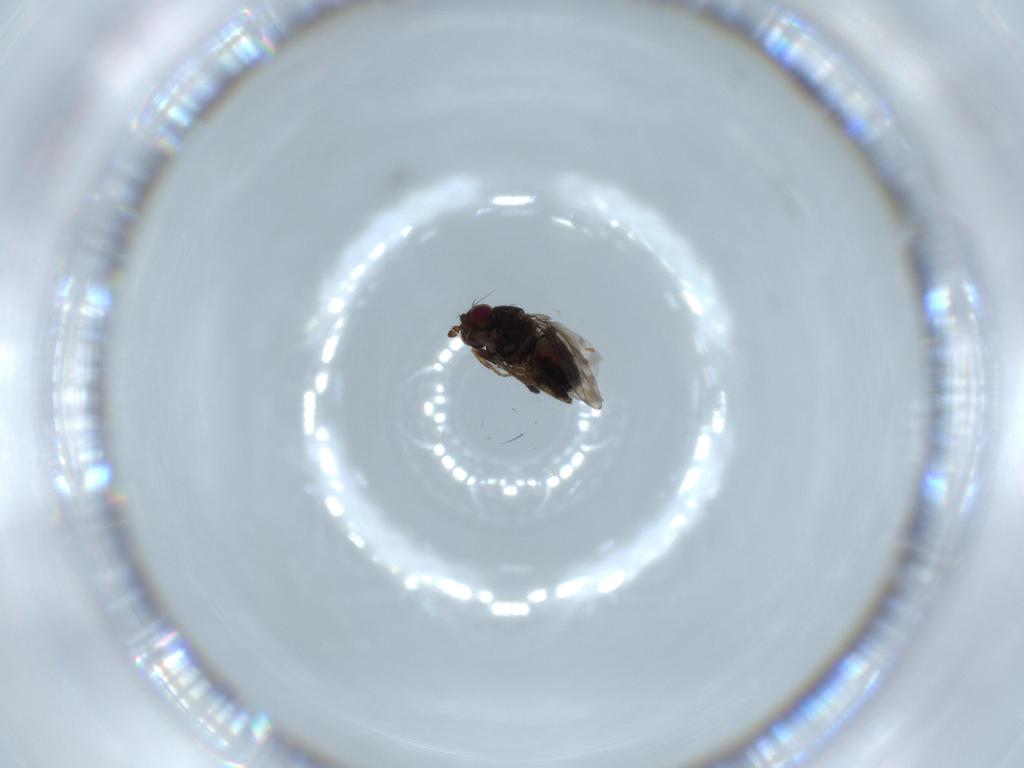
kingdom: Animalia
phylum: Arthropoda
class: Insecta
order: Diptera
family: Sphaeroceridae
